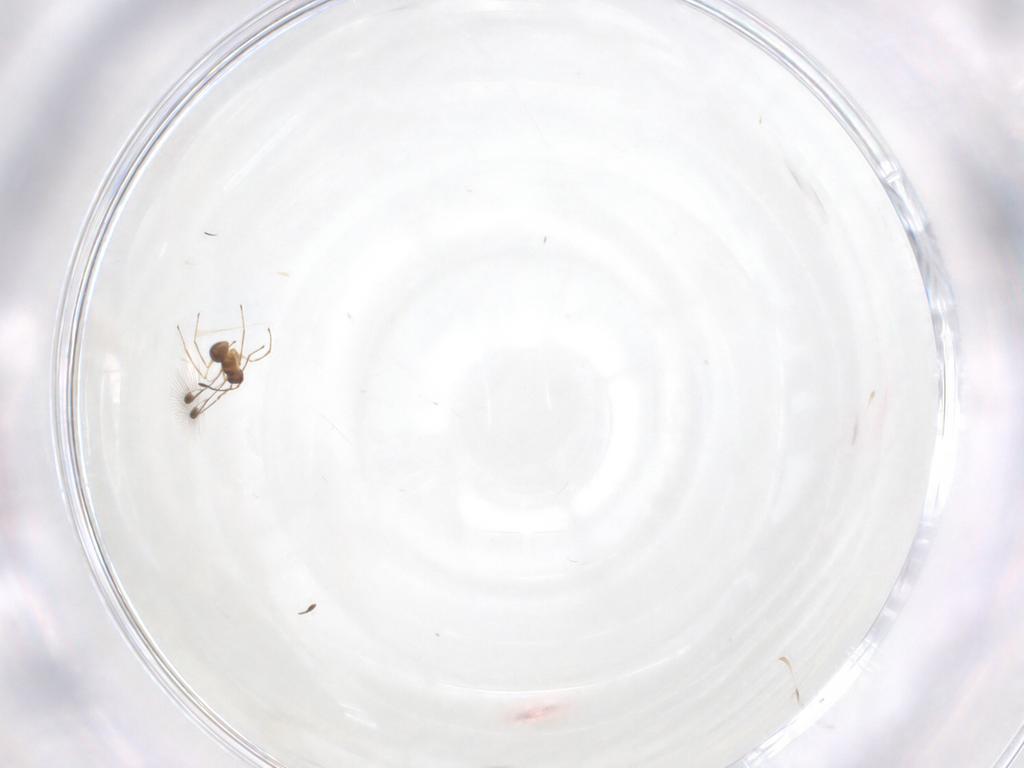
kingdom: Animalia
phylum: Arthropoda
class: Insecta
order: Hymenoptera
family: Mymaridae
